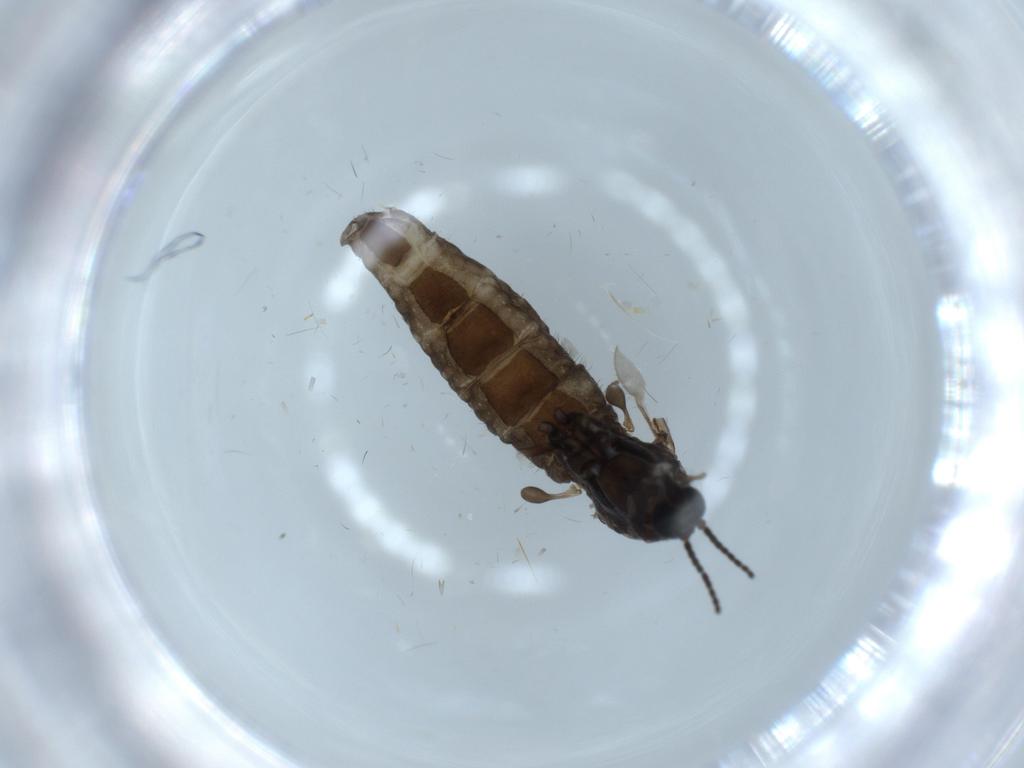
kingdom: Animalia
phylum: Arthropoda
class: Insecta
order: Diptera
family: Sciaridae
